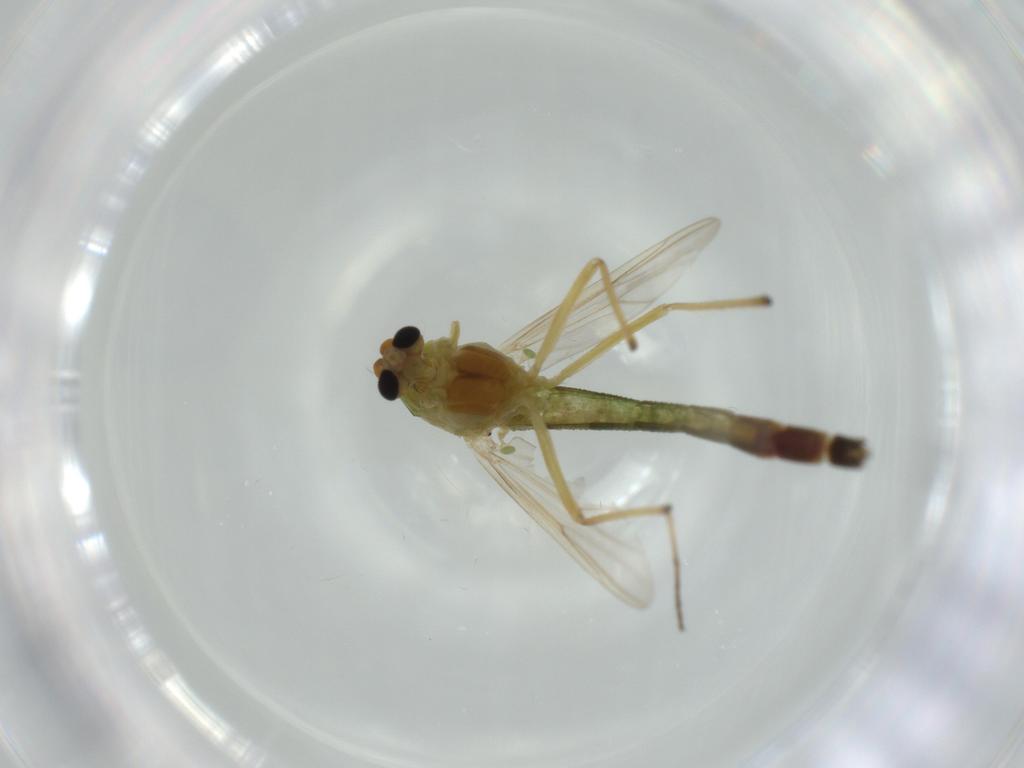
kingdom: Animalia
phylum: Arthropoda
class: Insecta
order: Diptera
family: Chironomidae
